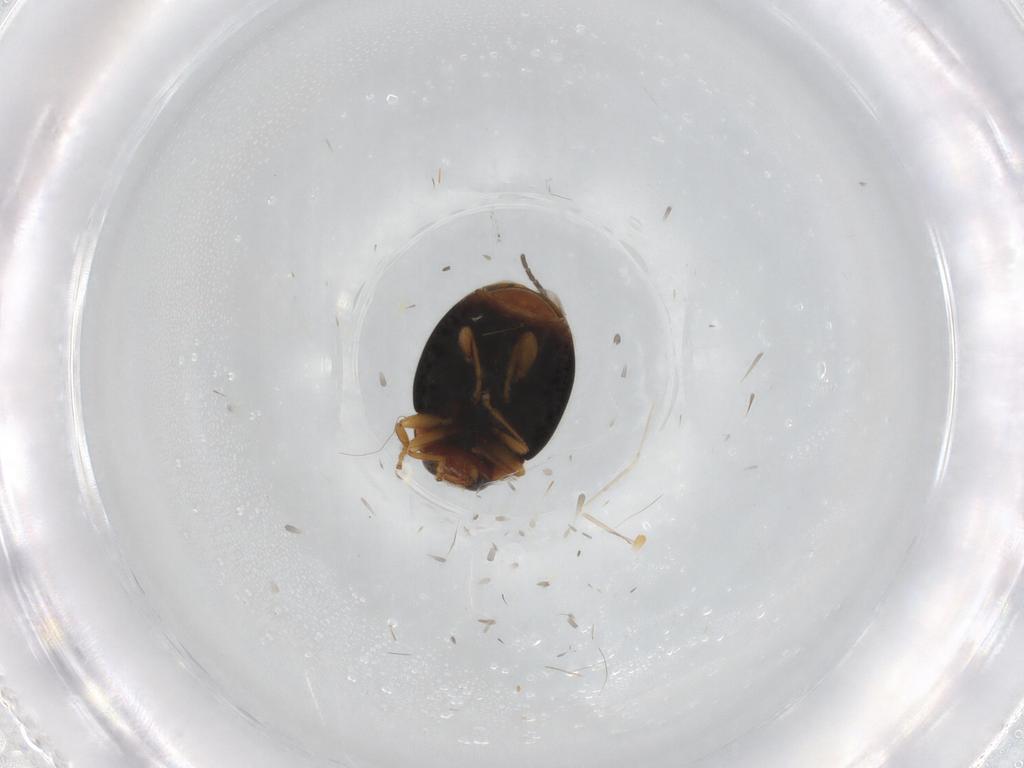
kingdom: Animalia
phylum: Arthropoda
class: Insecta
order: Coleoptera
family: Coccinellidae
